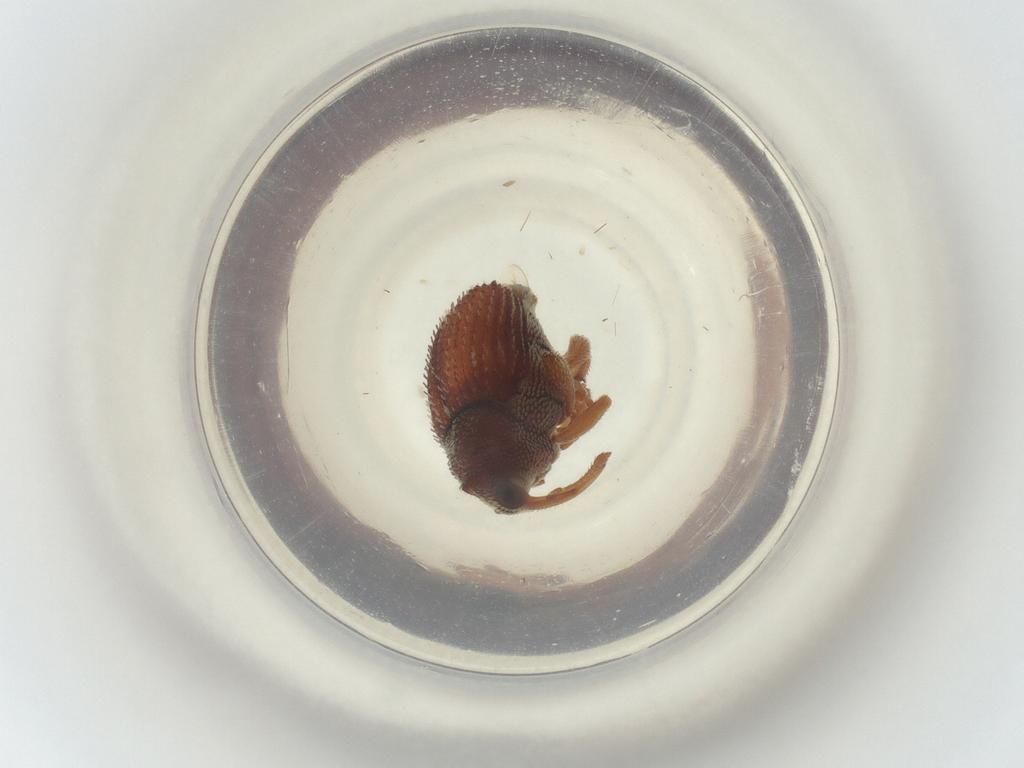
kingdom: Animalia
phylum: Arthropoda
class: Insecta
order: Coleoptera
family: Curculionidae
